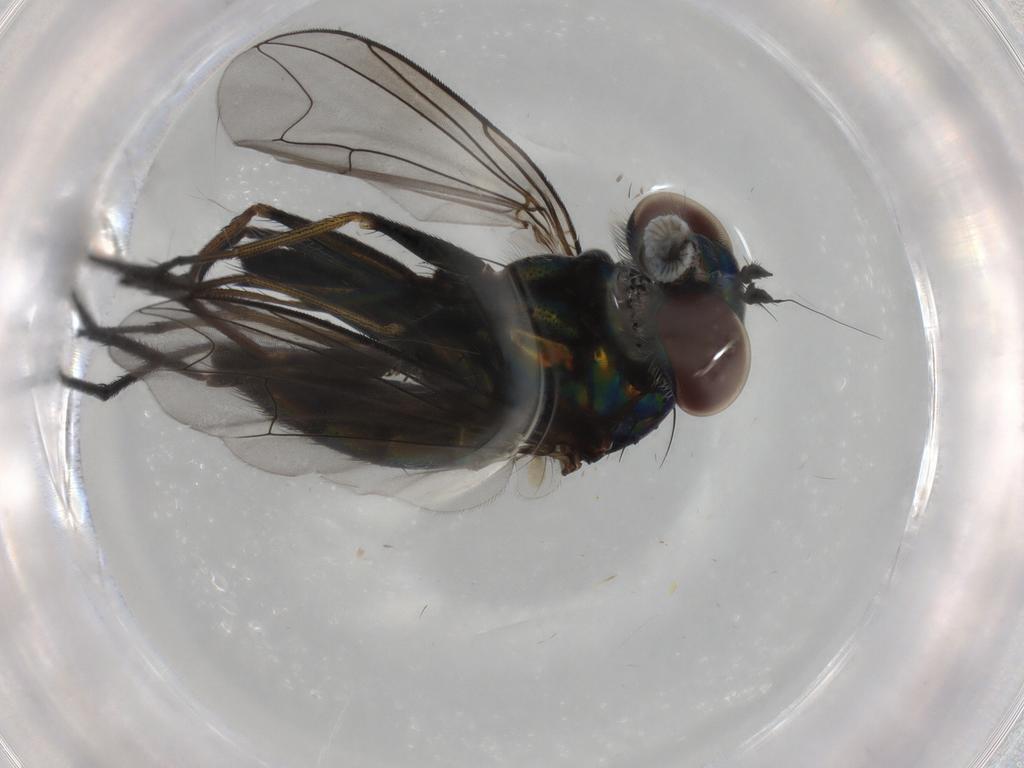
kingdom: Animalia
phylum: Arthropoda
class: Insecta
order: Diptera
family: Dolichopodidae
